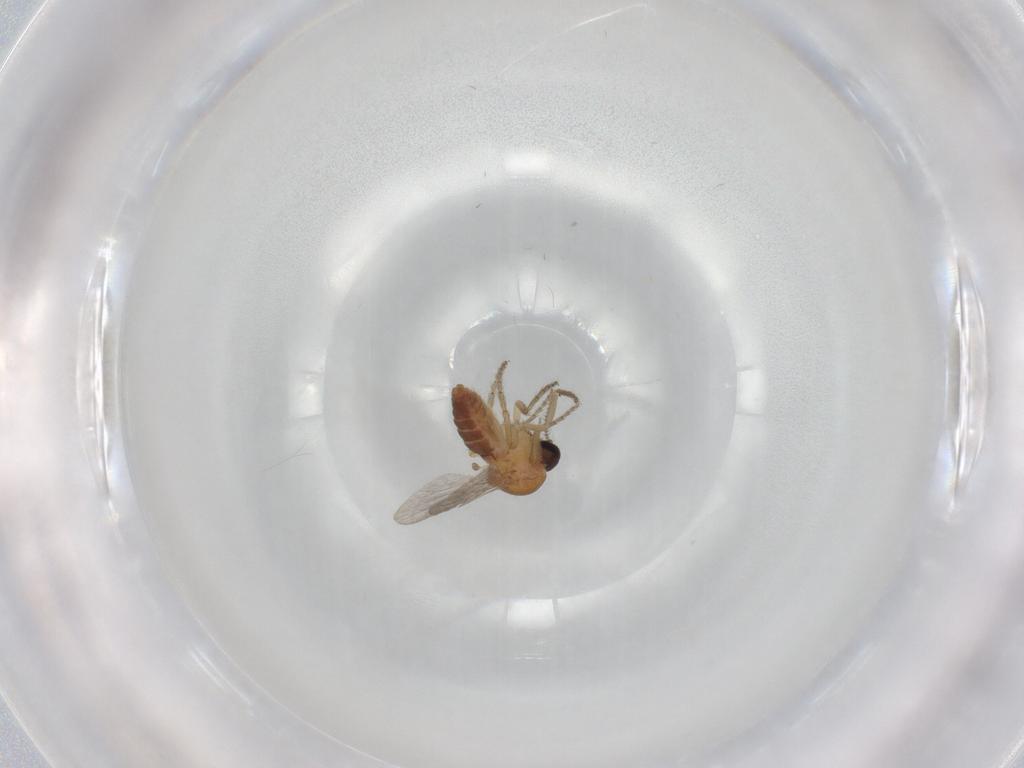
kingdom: Animalia
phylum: Arthropoda
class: Insecta
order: Diptera
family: Ceratopogonidae
